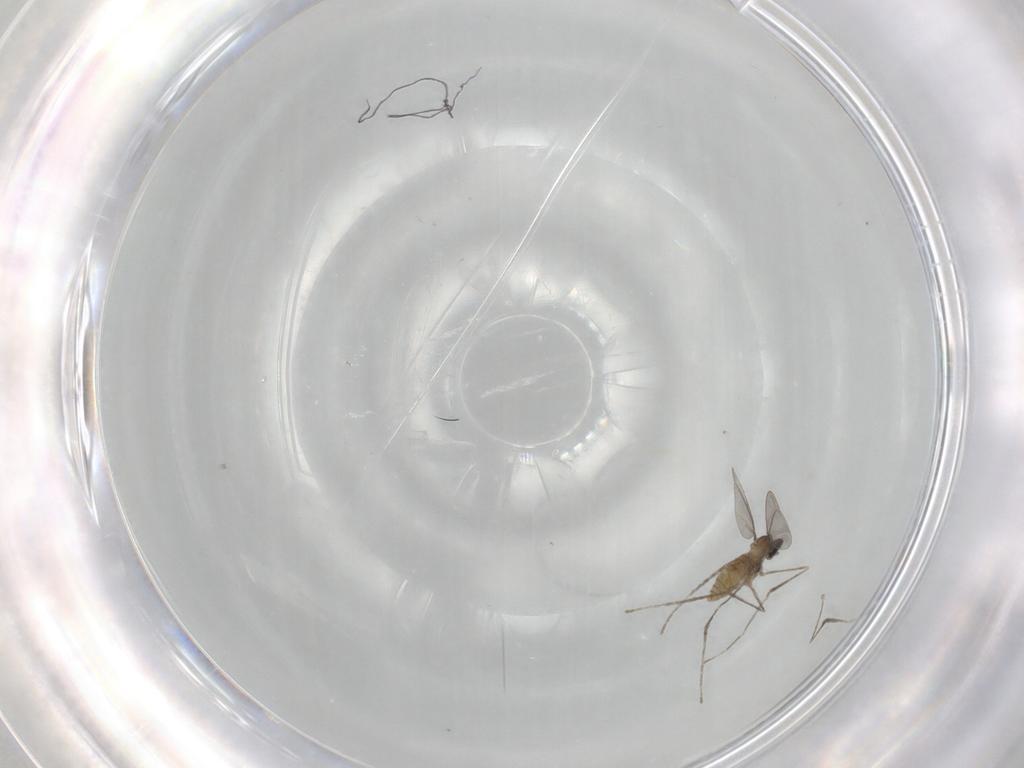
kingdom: Animalia
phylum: Arthropoda
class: Insecta
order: Diptera
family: Cecidomyiidae
